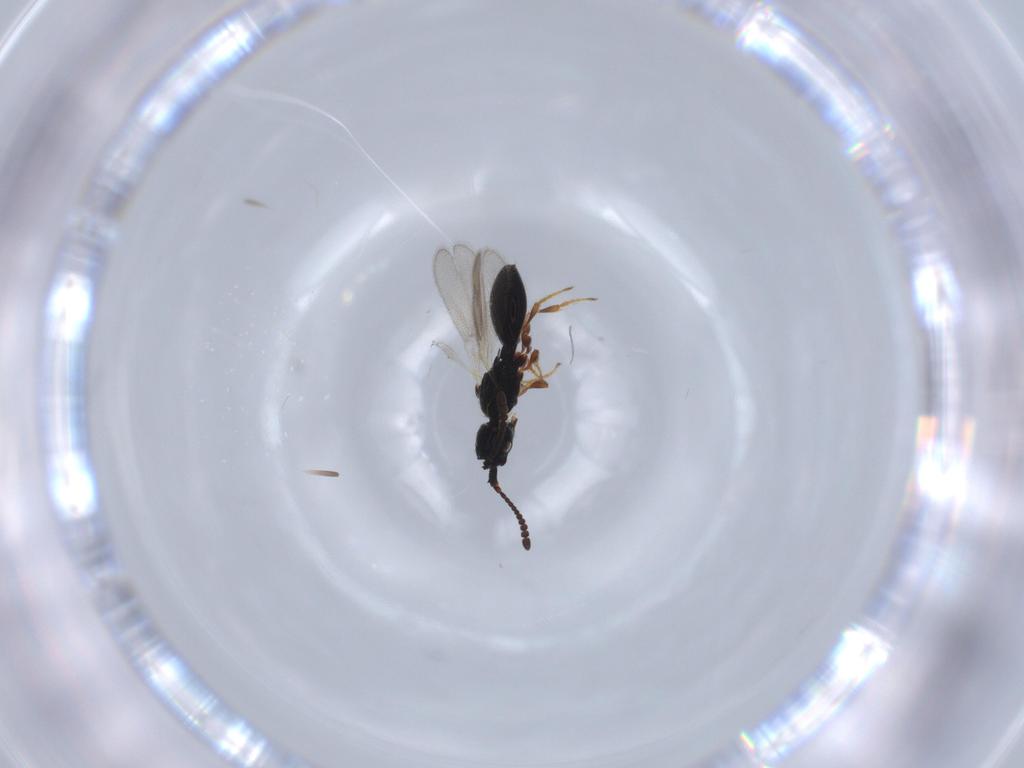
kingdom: Animalia
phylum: Arthropoda
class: Insecta
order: Hymenoptera
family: Diapriidae
